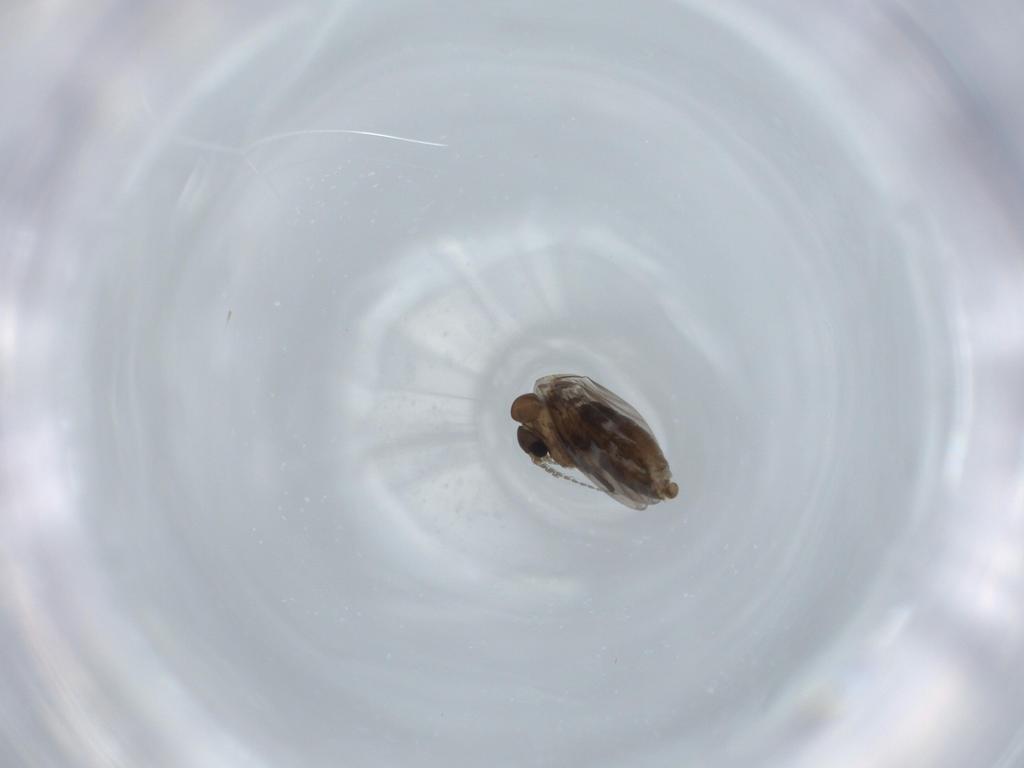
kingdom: Animalia
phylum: Arthropoda
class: Insecta
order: Diptera
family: Psychodidae
